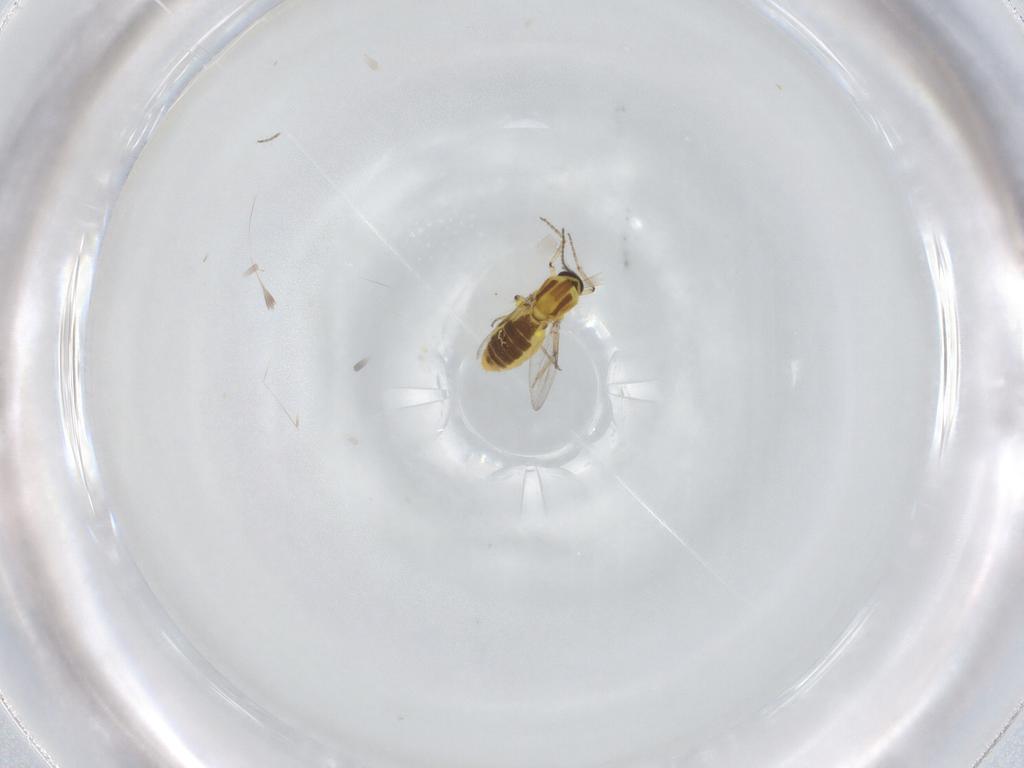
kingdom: Animalia
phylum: Arthropoda
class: Insecta
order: Diptera
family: Ceratopogonidae
